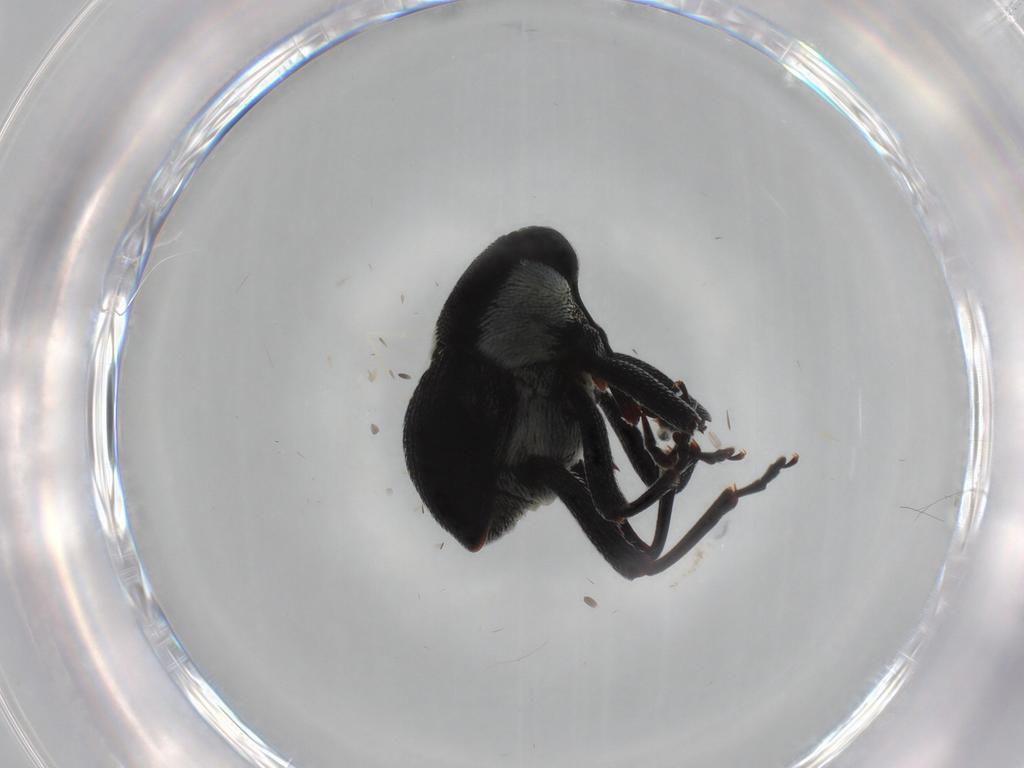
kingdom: Animalia
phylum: Arthropoda
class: Insecta
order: Coleoptera
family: Curculionidae
